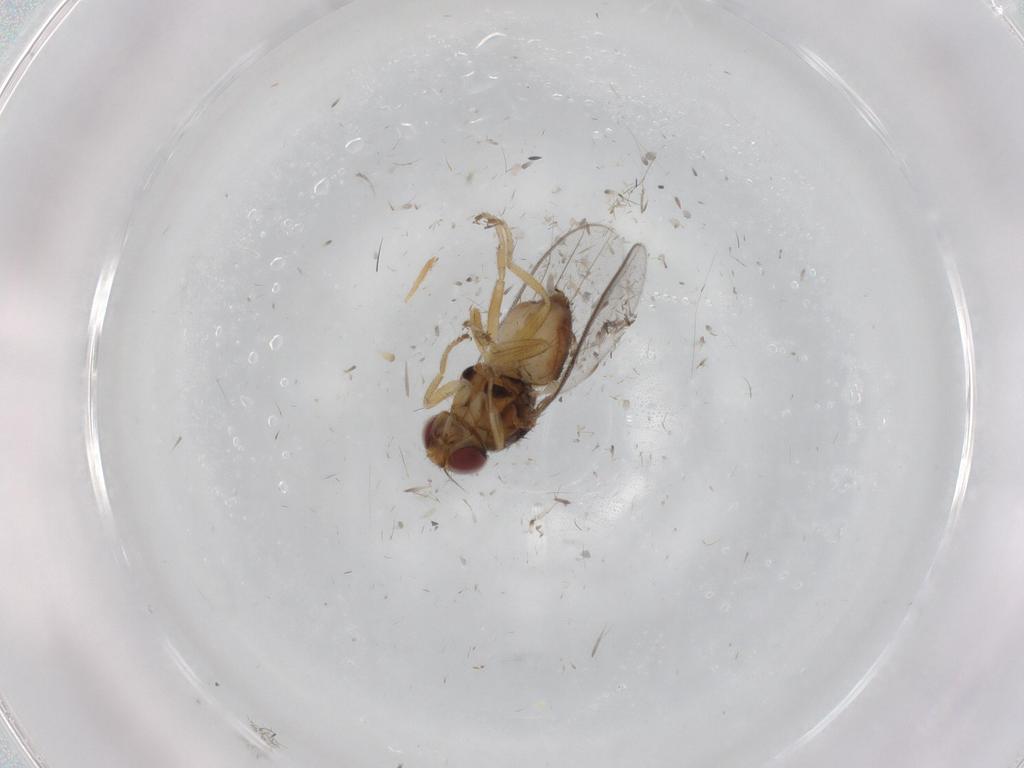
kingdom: Animalia
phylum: Arthropoda
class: Insecta
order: Diptera
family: Chloropidae
